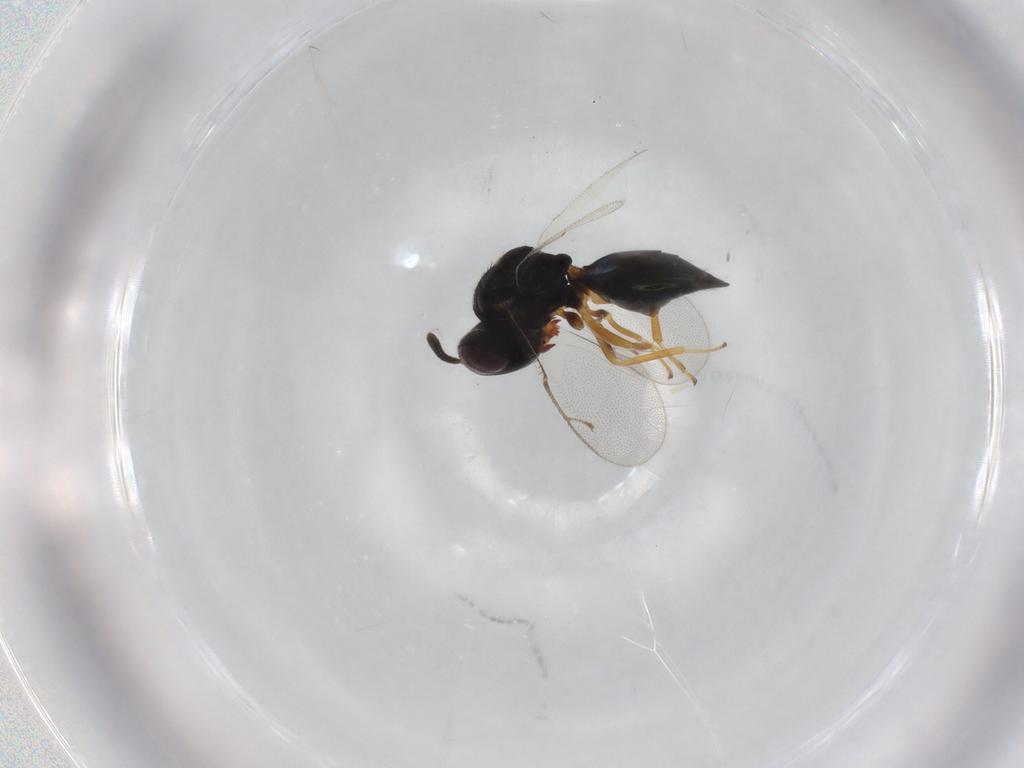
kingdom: Animalia
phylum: Arthropoda
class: Insecta
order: Hymenoptera
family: Pteromalidae
